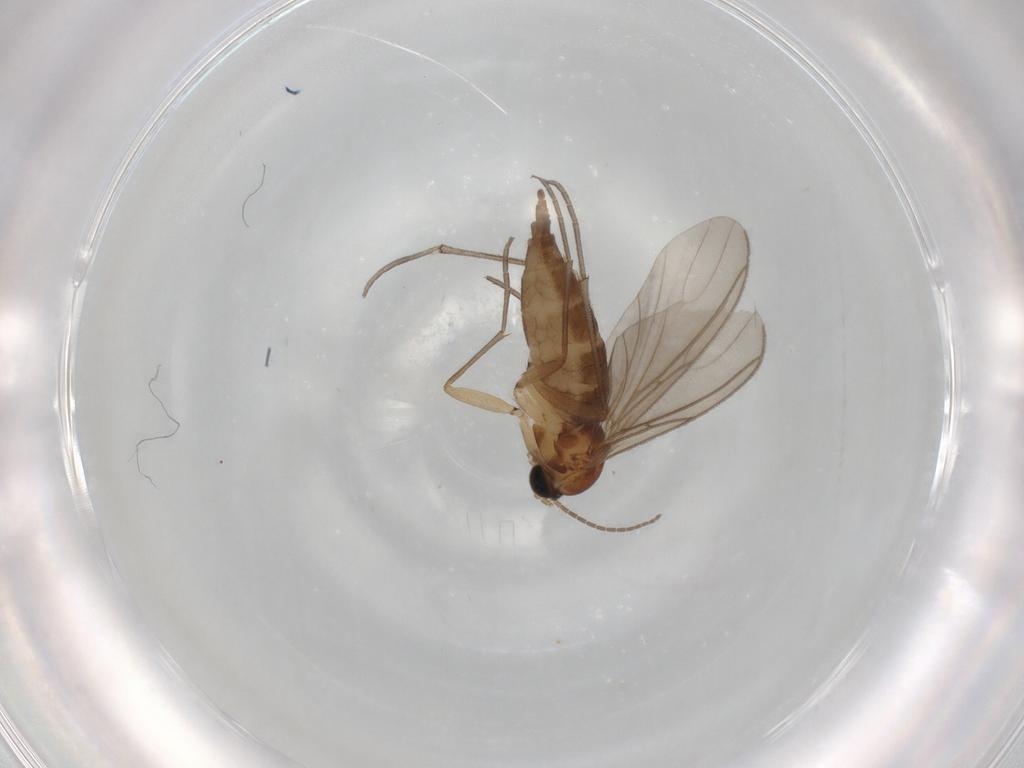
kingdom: Animalia
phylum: Arthropoda
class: Insecta
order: Diptera
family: Sciaridae
